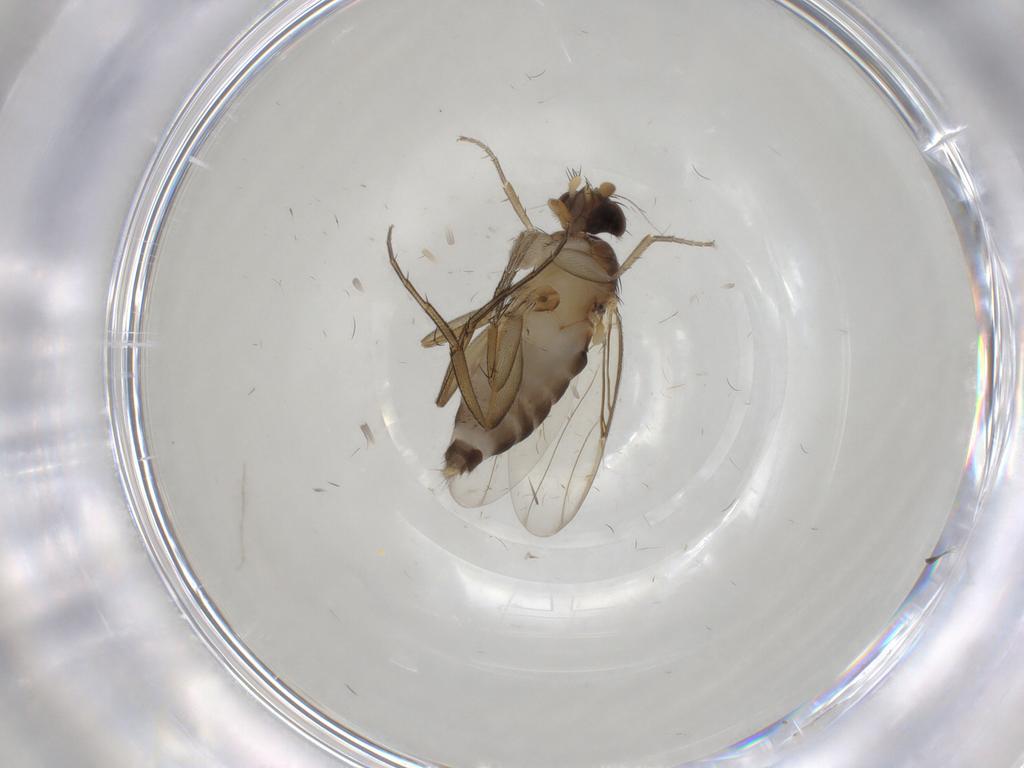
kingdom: Animalia
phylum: Arthropoda
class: Insecta
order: Diptera
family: Phoridae
